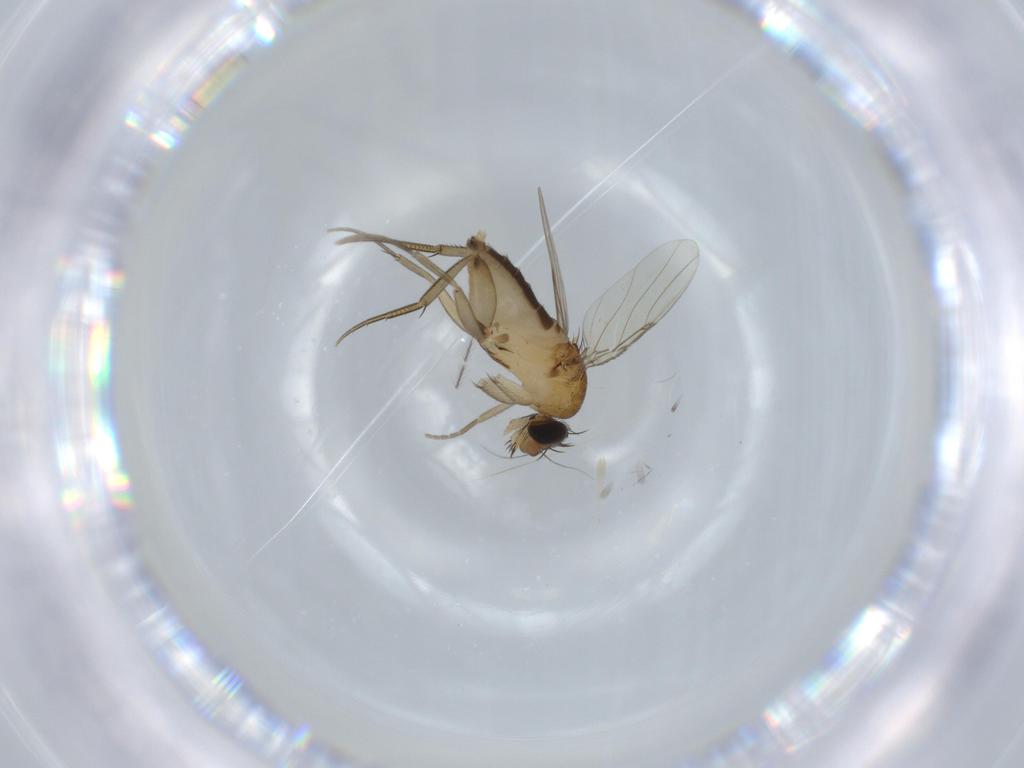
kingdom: Animalia
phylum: Arthropoda
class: Insecta
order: Diptera
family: Phoridae
